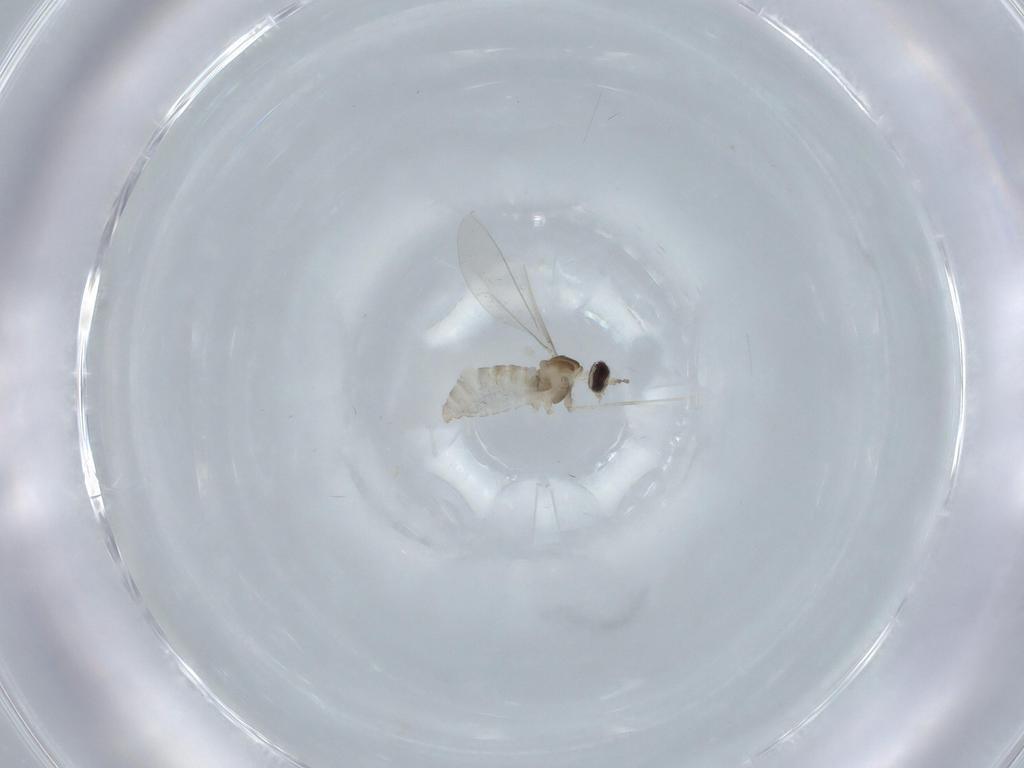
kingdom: Animalia
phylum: Arthropoda
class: Insecta
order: Diptera
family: Cecidomyiidae
